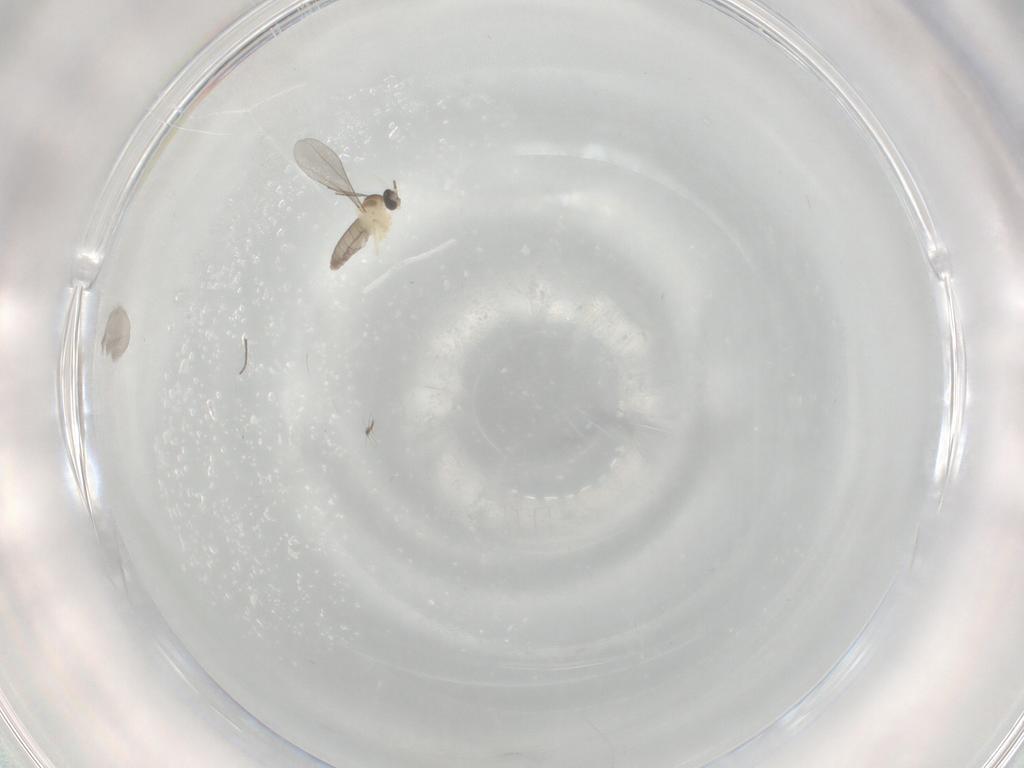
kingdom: Animalia
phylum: Arthropoda
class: Insecta
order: Diptera
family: Cecidomyiidae
